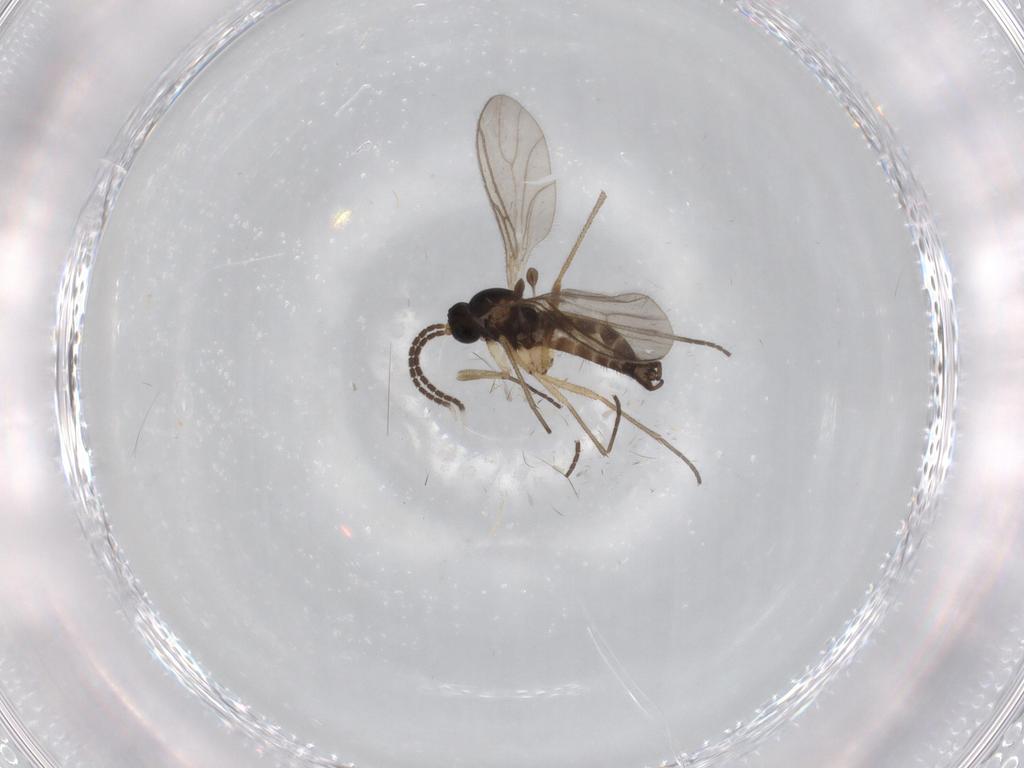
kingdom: Animalia
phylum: Arthropoda
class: Insecta
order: Diptera
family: Sciaridae
